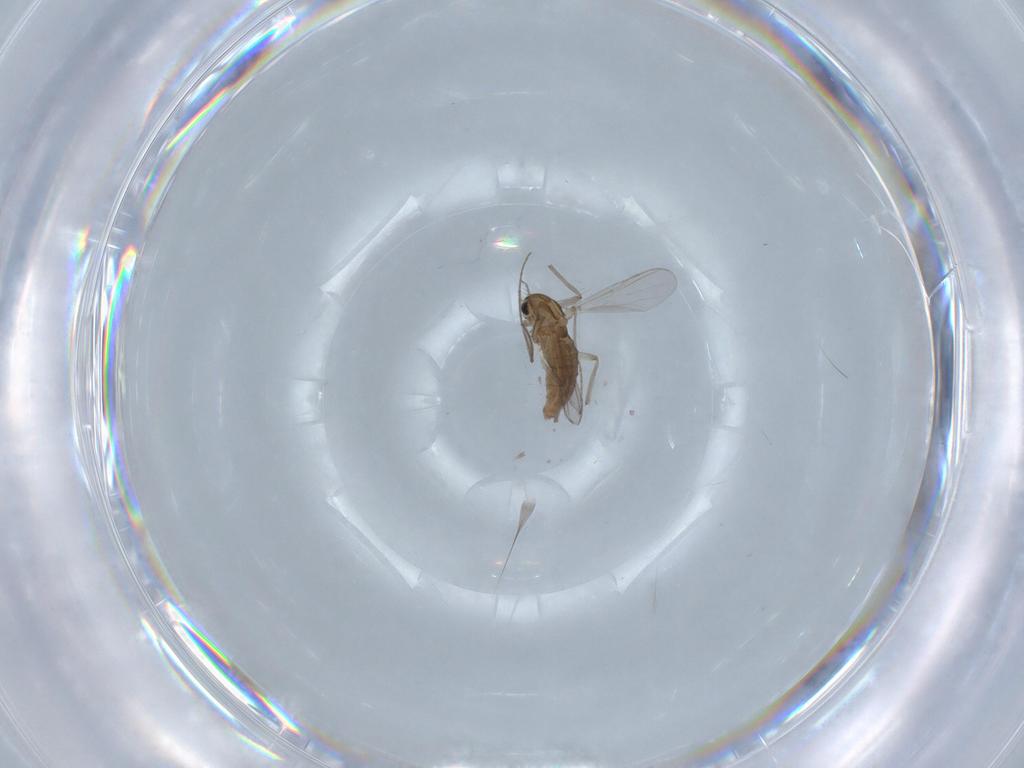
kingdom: Animalia
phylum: Arthropoda
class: Insecta
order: Diptera
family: Chironomidae
